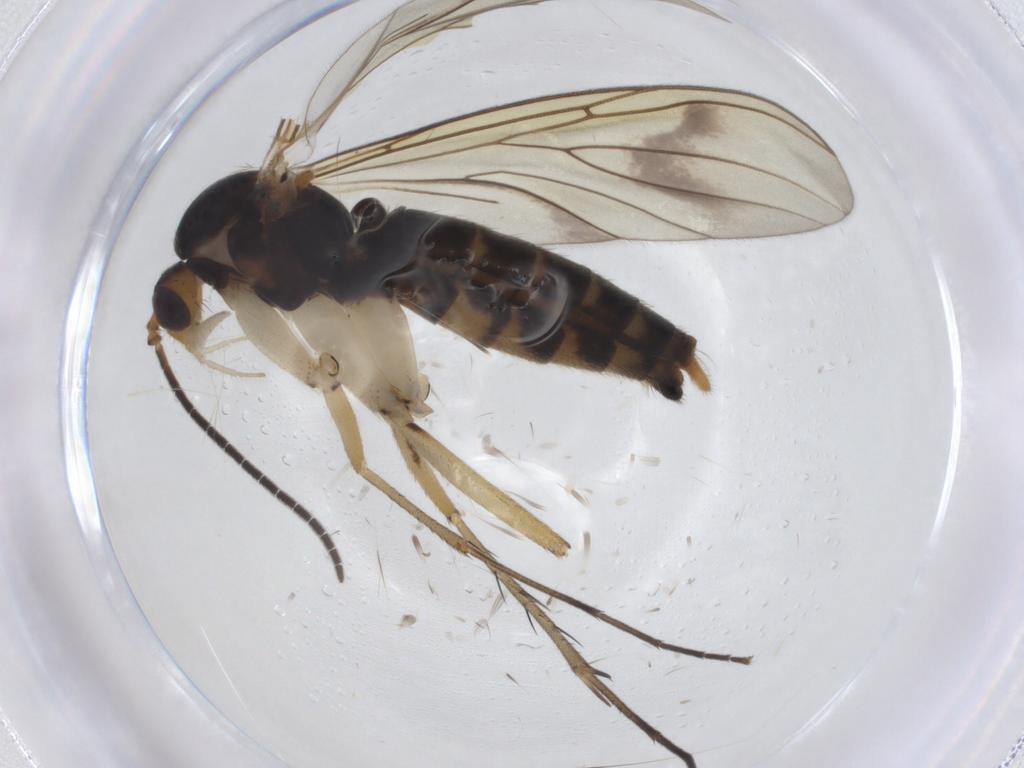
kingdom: Animalia
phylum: Arthropoda
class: Insecta
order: Diptera
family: Mycetophilidae
